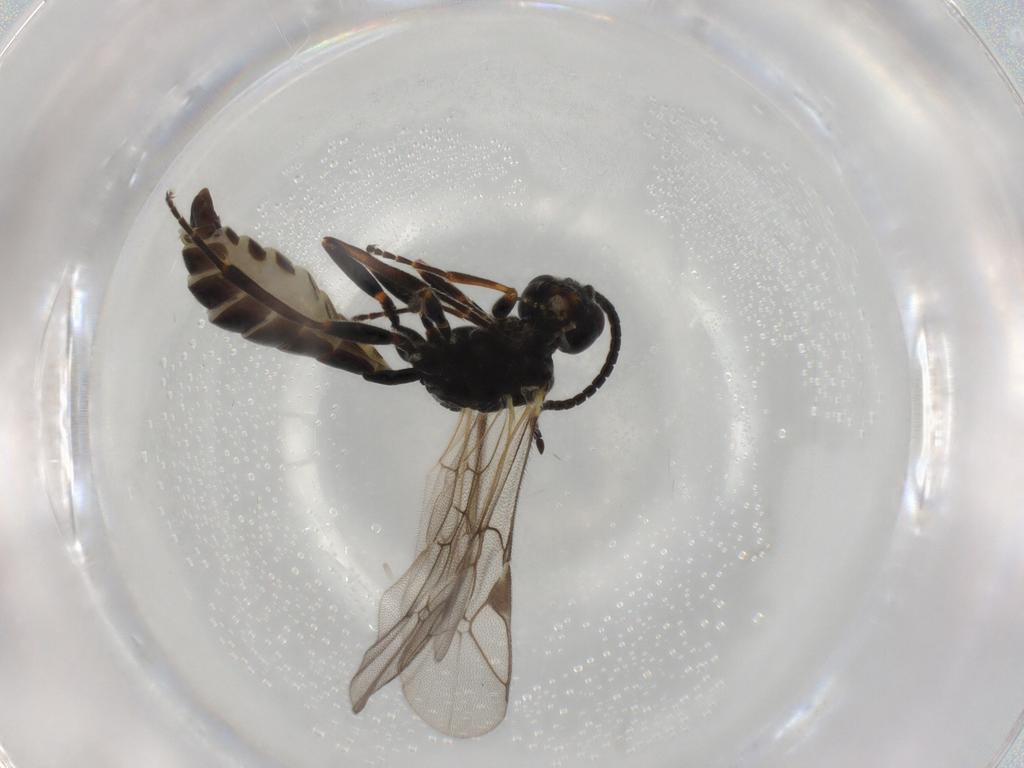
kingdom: Animalia
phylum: Arthropoda
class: Insecta
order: Hymenoptera
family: Ichneumonidae
